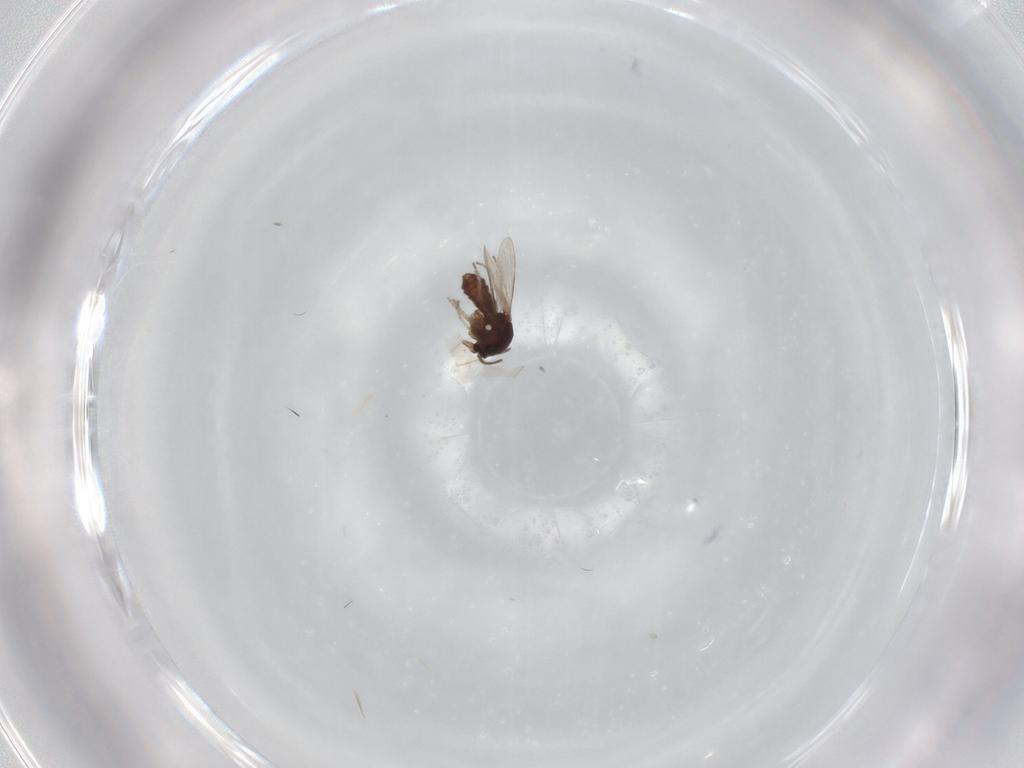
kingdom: Animalia
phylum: Arthropoda
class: Insecta
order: Diptera
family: Ceratopogonidae
